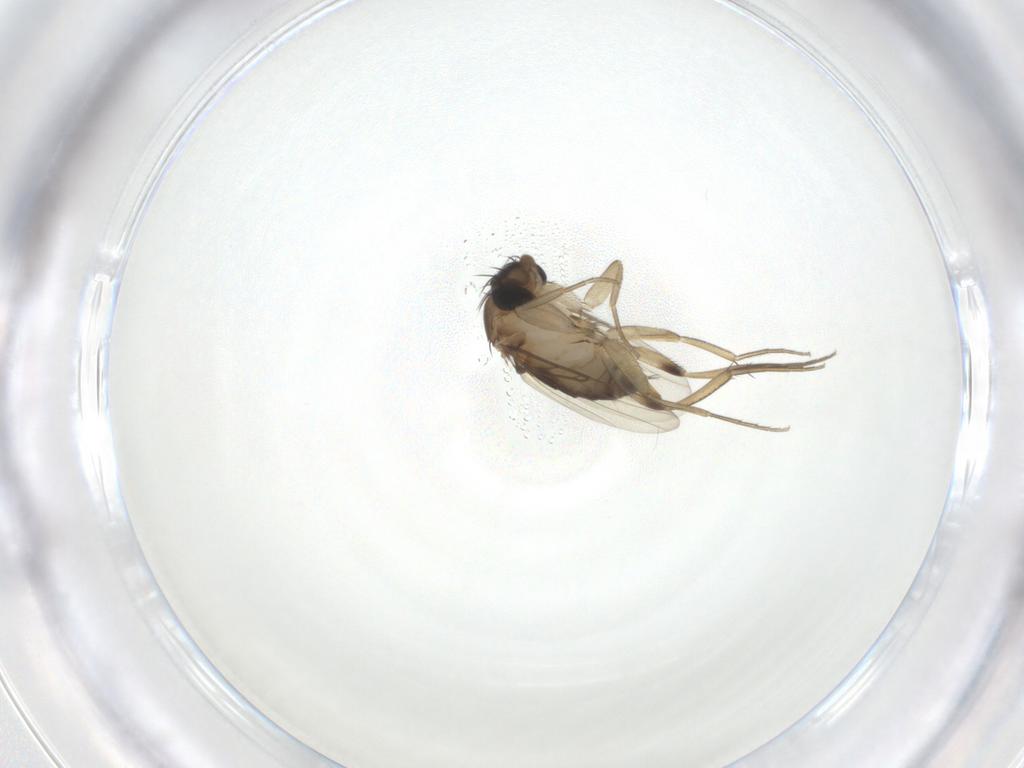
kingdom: Animalia
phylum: Arthropoda
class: Insecta
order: Diptera
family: Phoridae
